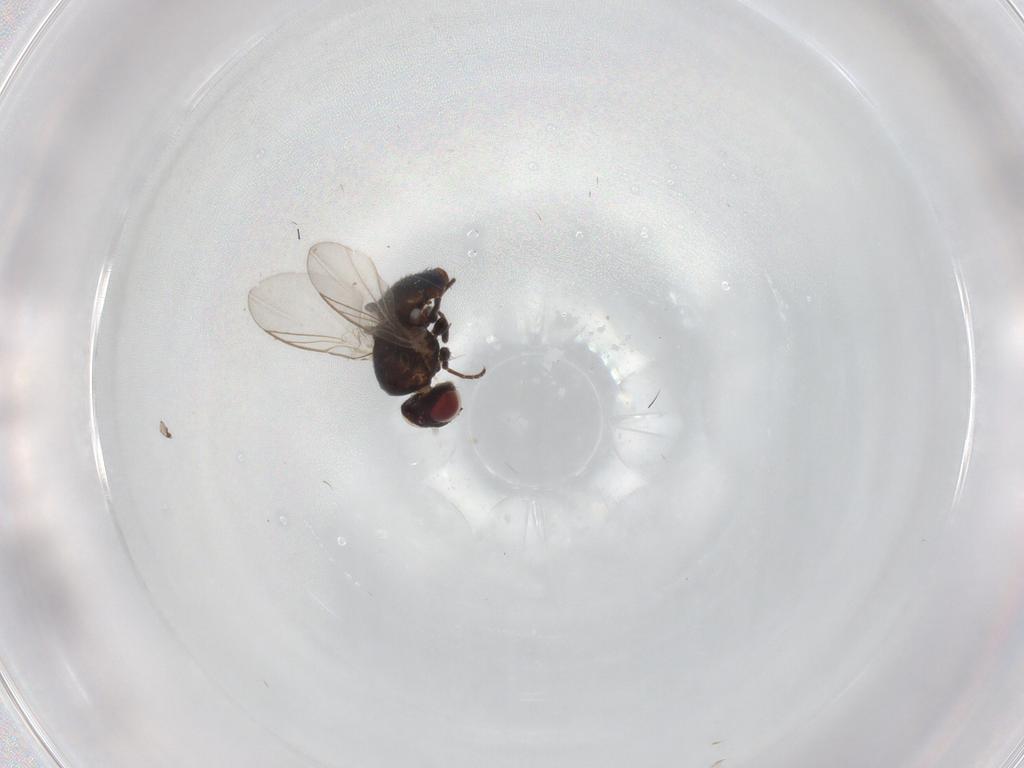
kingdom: Animalia
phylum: Arthropoda
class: Insecta
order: Diptera
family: Agromyzidae
